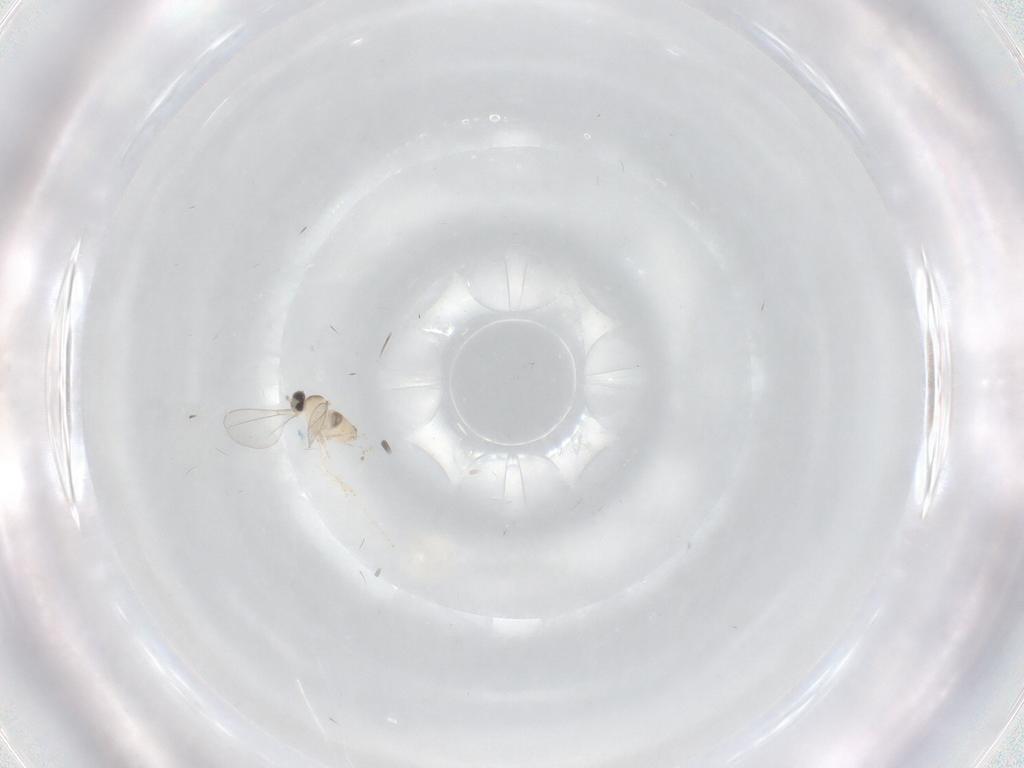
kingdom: Animalia
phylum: Arthropoda
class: Insecta
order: Diptera
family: Cecidomyiidae
